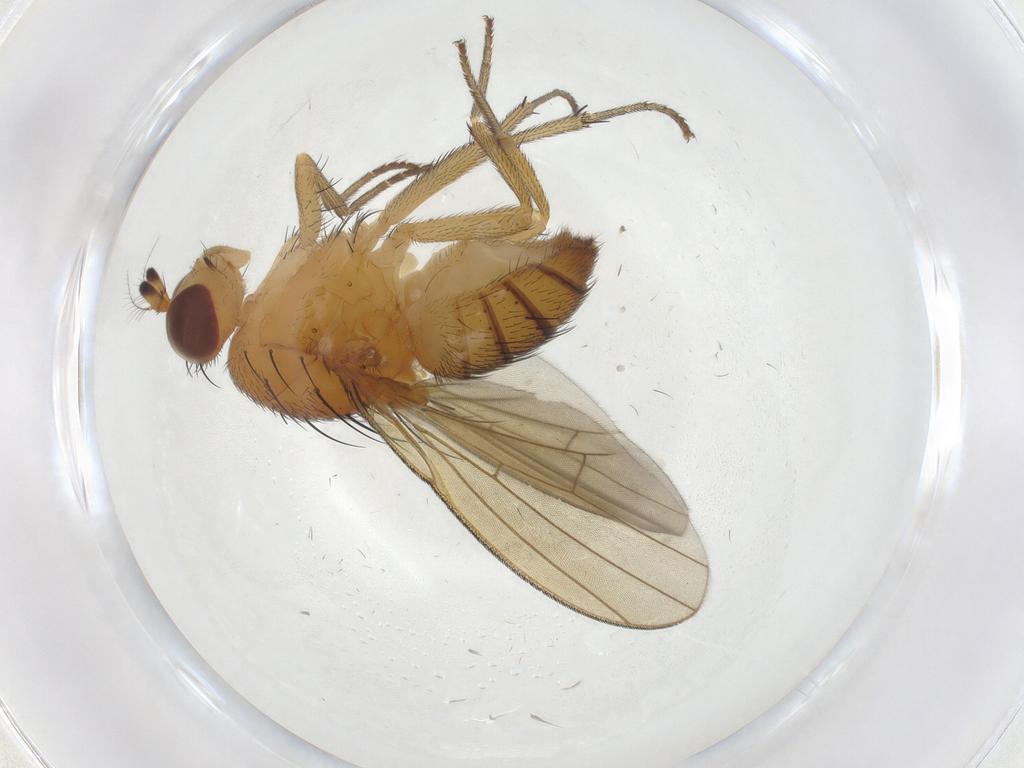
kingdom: Animalia
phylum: Arthropoda
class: Insecta
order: Diptera
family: Lauxaniidae
